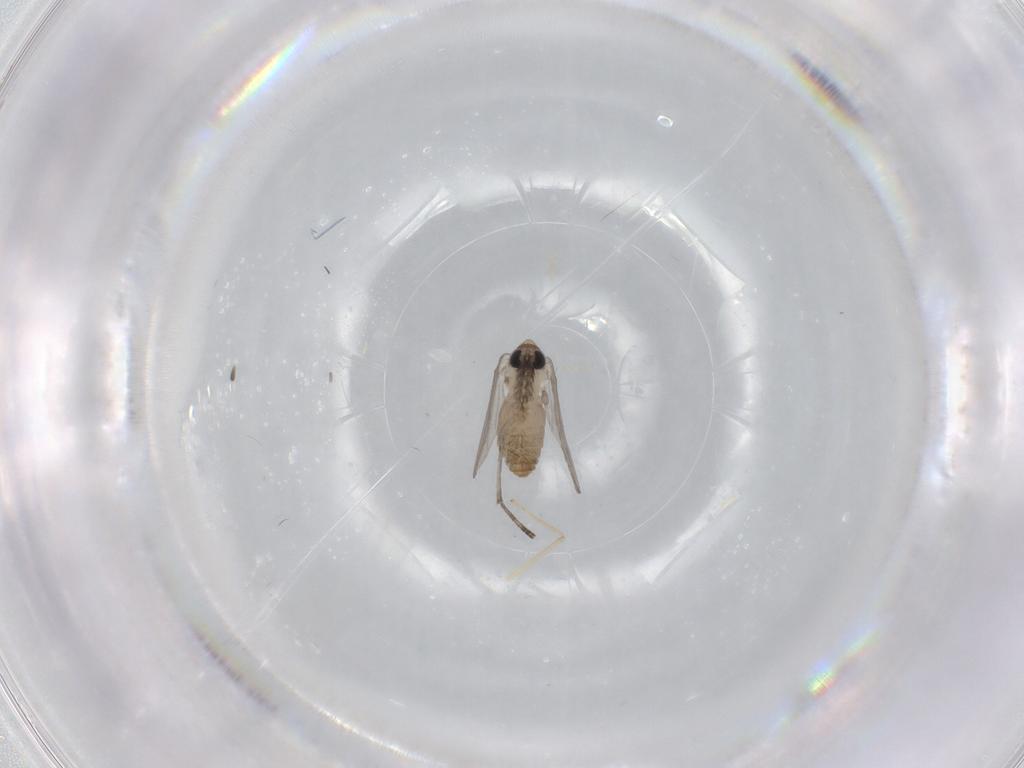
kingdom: Animalia
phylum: Arthropoda
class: Insecta
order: Diptera
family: Psychodidae
